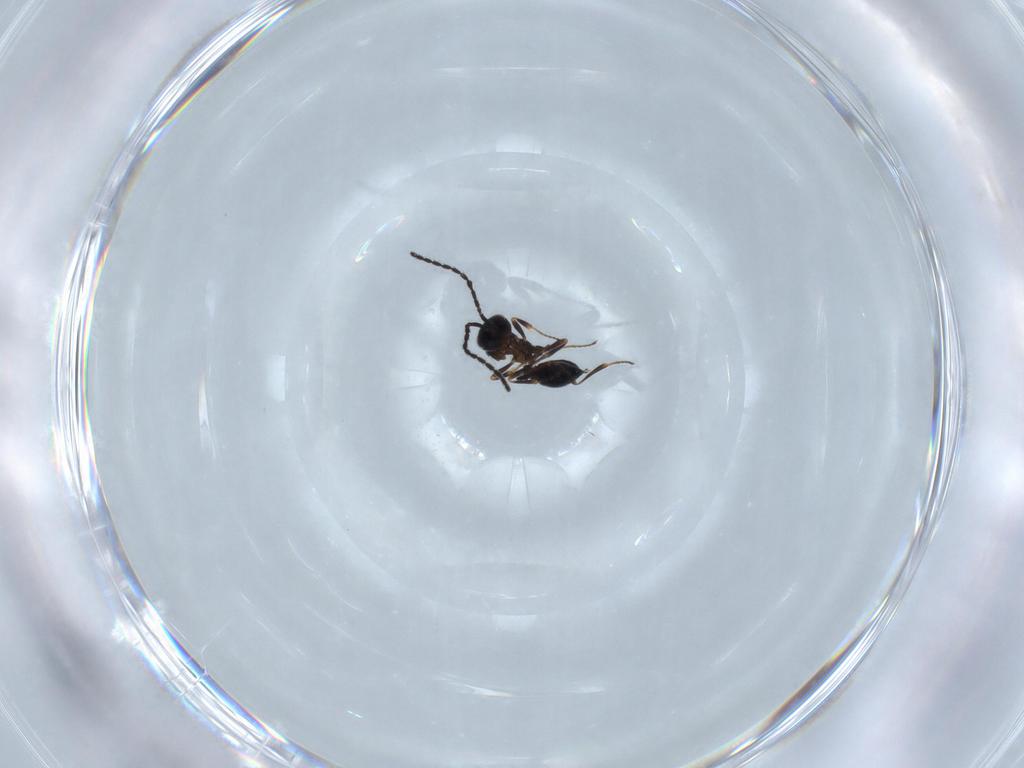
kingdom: Animalia
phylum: Arthropoda
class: Insecta
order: Hymenoptera
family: Scelionidae
